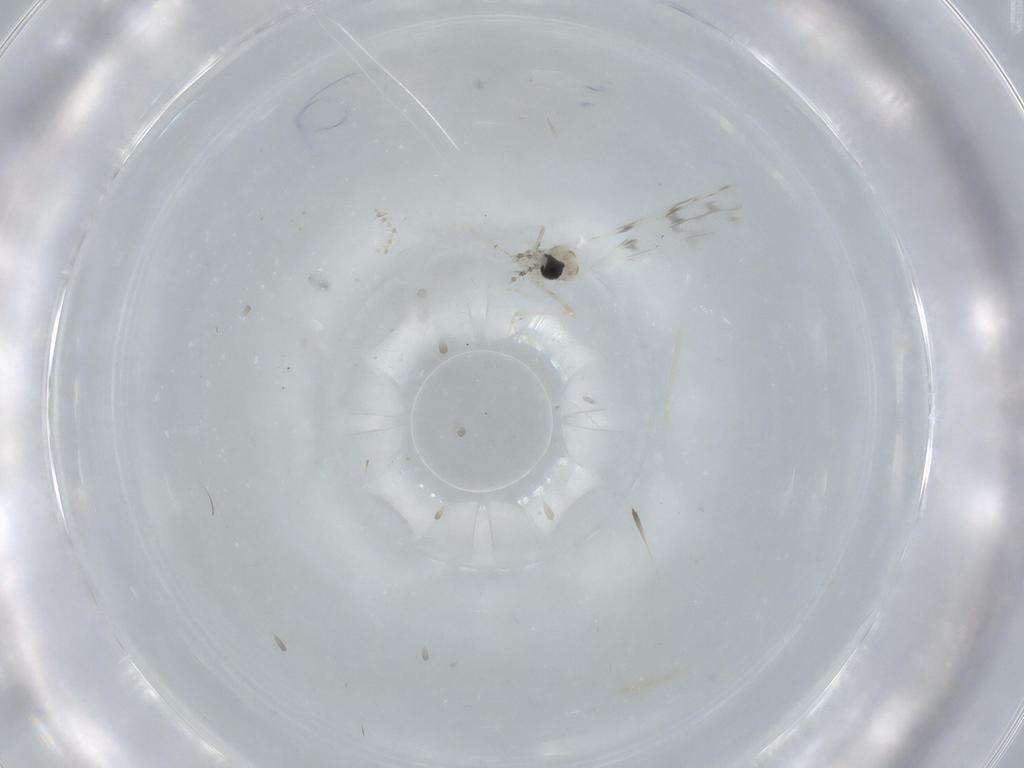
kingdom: Animalia
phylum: Arthropoda
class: Insecta
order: Diptera
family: Cecidomyiidae
